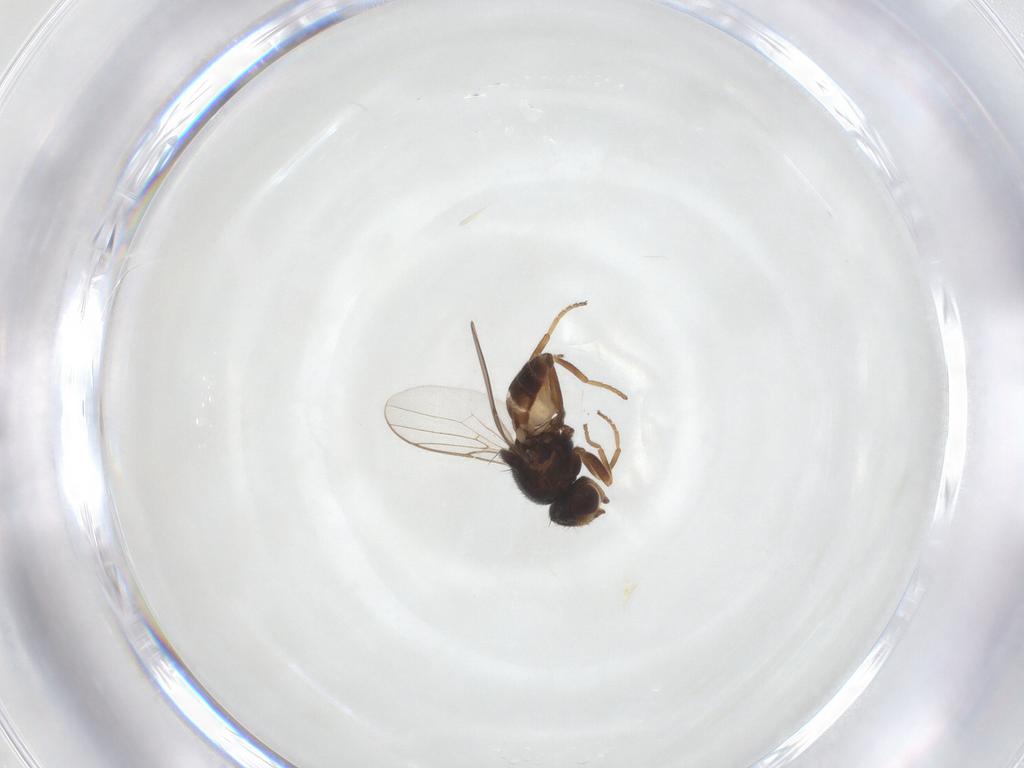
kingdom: Animalia
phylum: Arthropoda
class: Insecta
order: Diptera
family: Chloropidae
